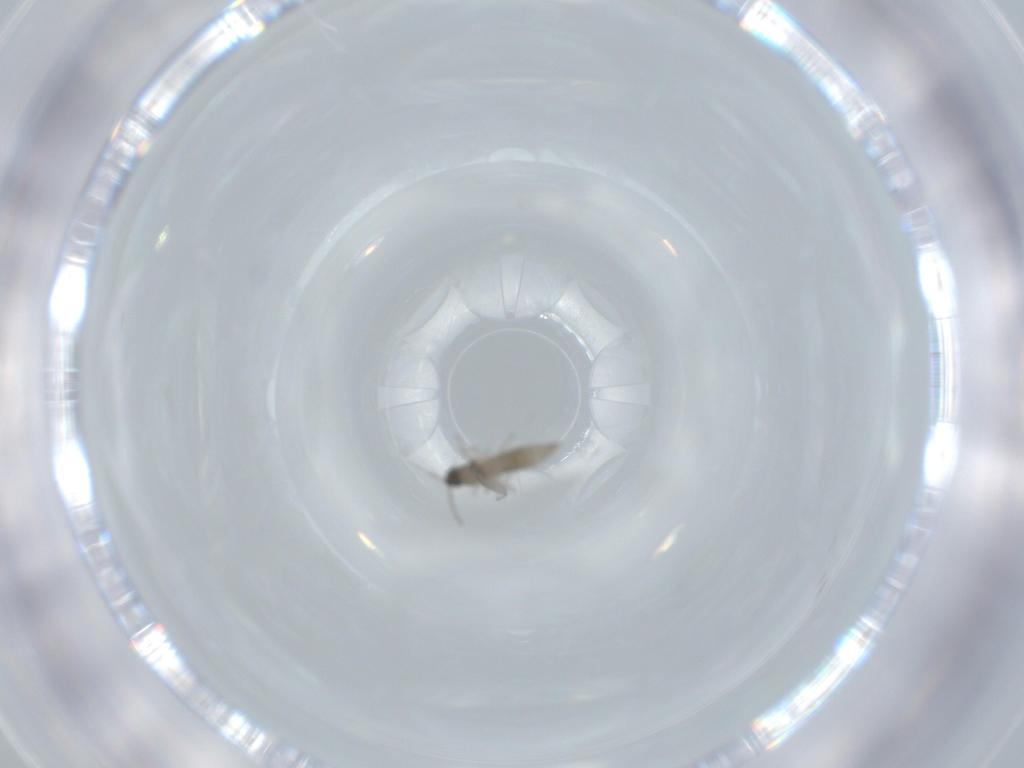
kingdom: Animalia
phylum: Arthropoda
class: Insecta
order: Diptera
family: Cecidomyiidae
